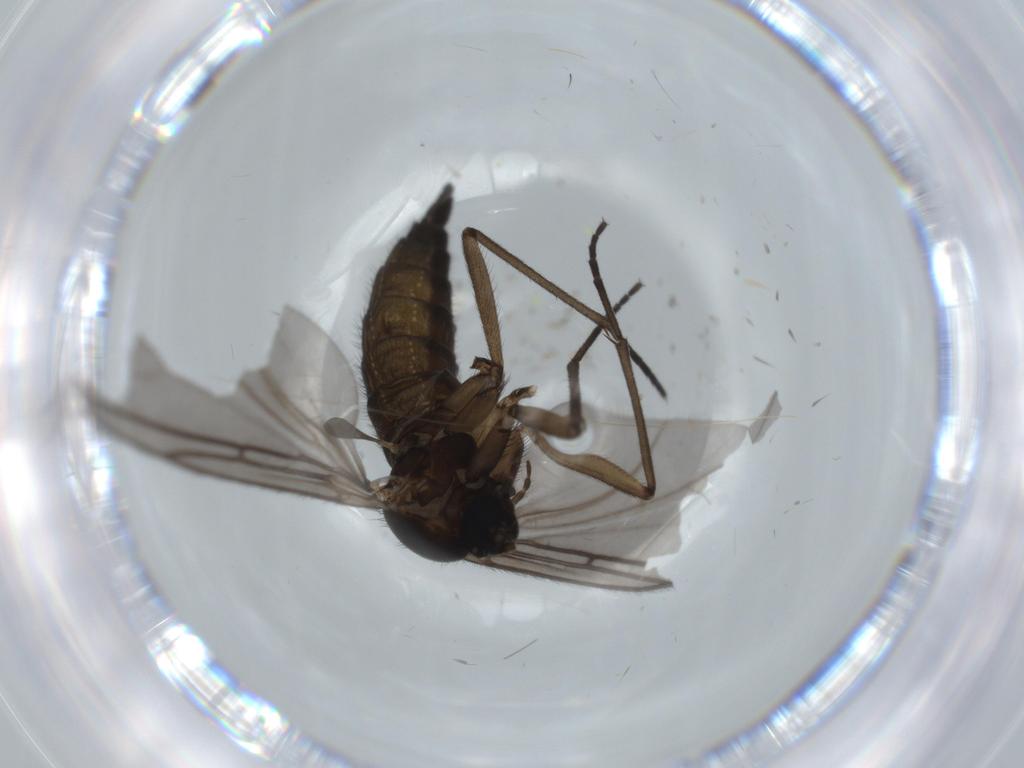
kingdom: Animalia
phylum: Arthropoda
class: Insecta
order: Diptera
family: Sciaridae
